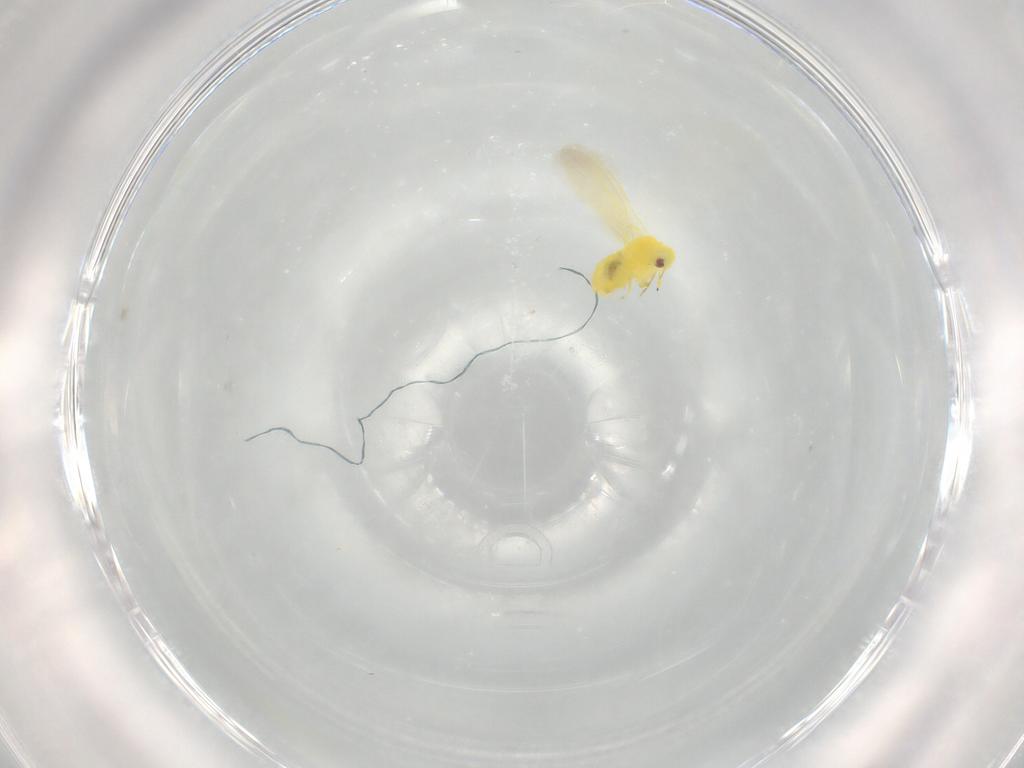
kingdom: Animalia
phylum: Arthropoda
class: Insecta
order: Hemiptera
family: Aleyrodidae
